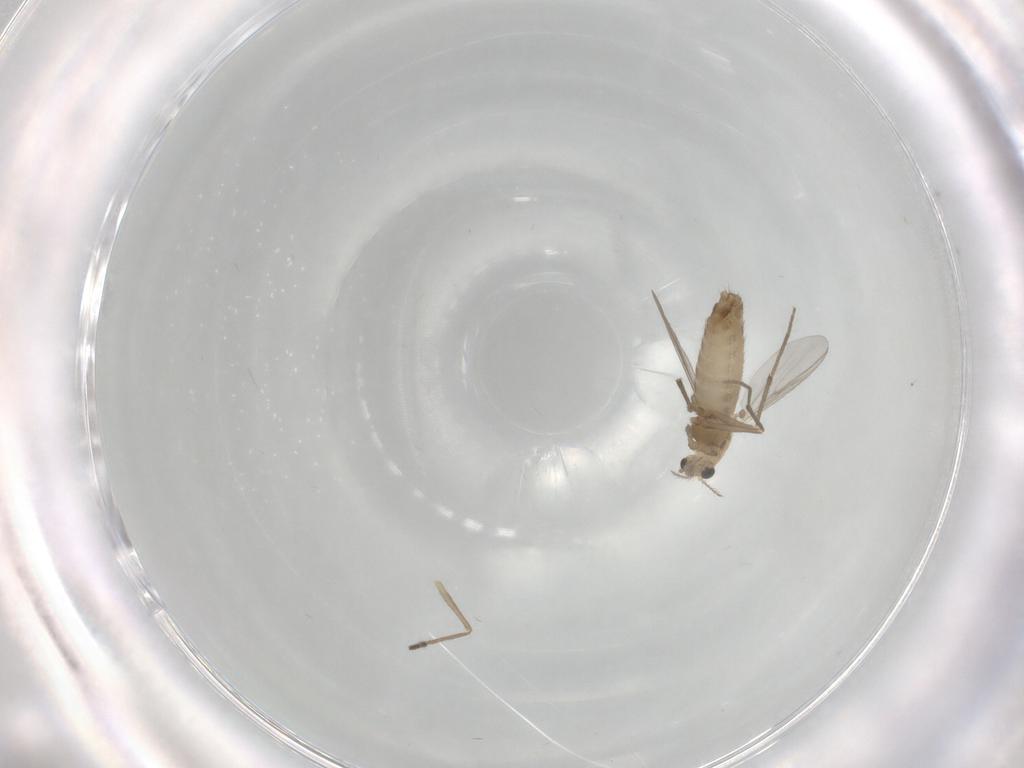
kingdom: Animalia
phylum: Arthropoda
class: Insecta
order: Diptera
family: Chironomidae
